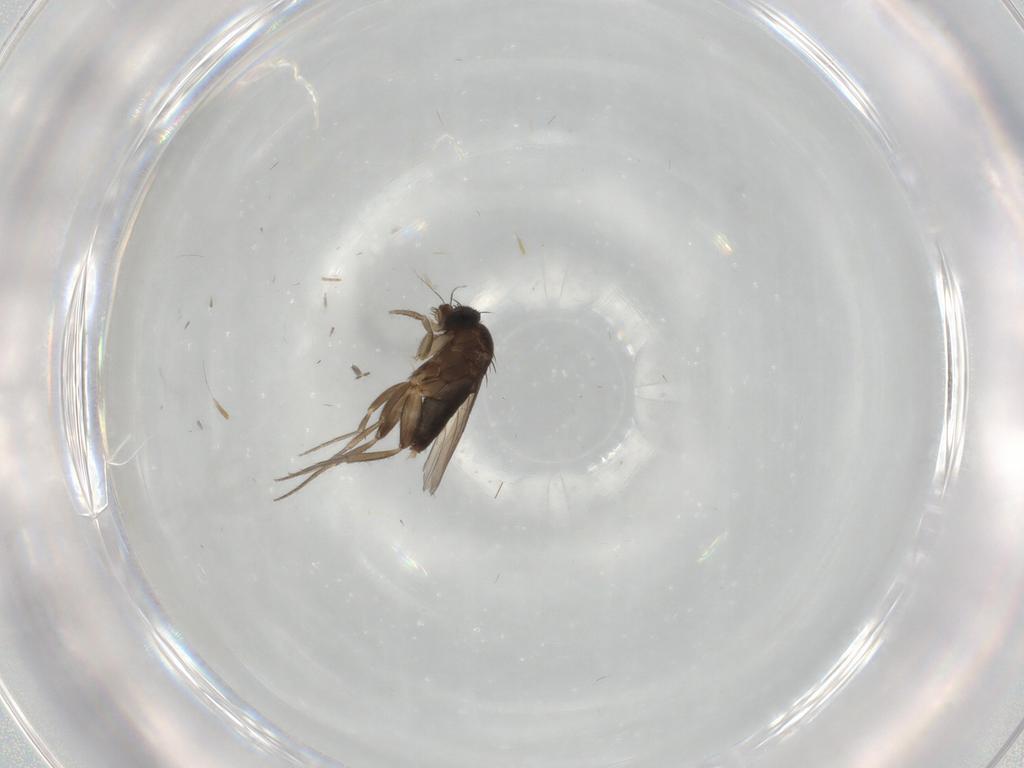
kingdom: Animalia
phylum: Arthropoda
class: Insecta
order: Diptera
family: Phoridae
